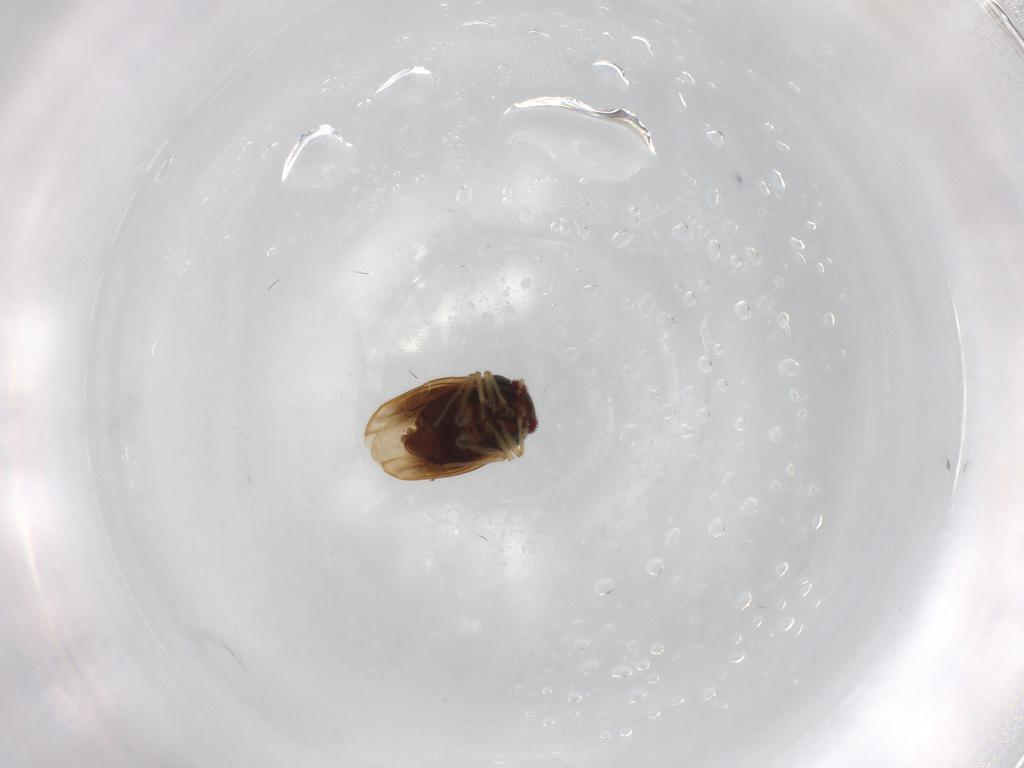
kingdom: Animalia
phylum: Arthropoda
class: Insecta
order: Hemiptera
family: Schizopteridae
